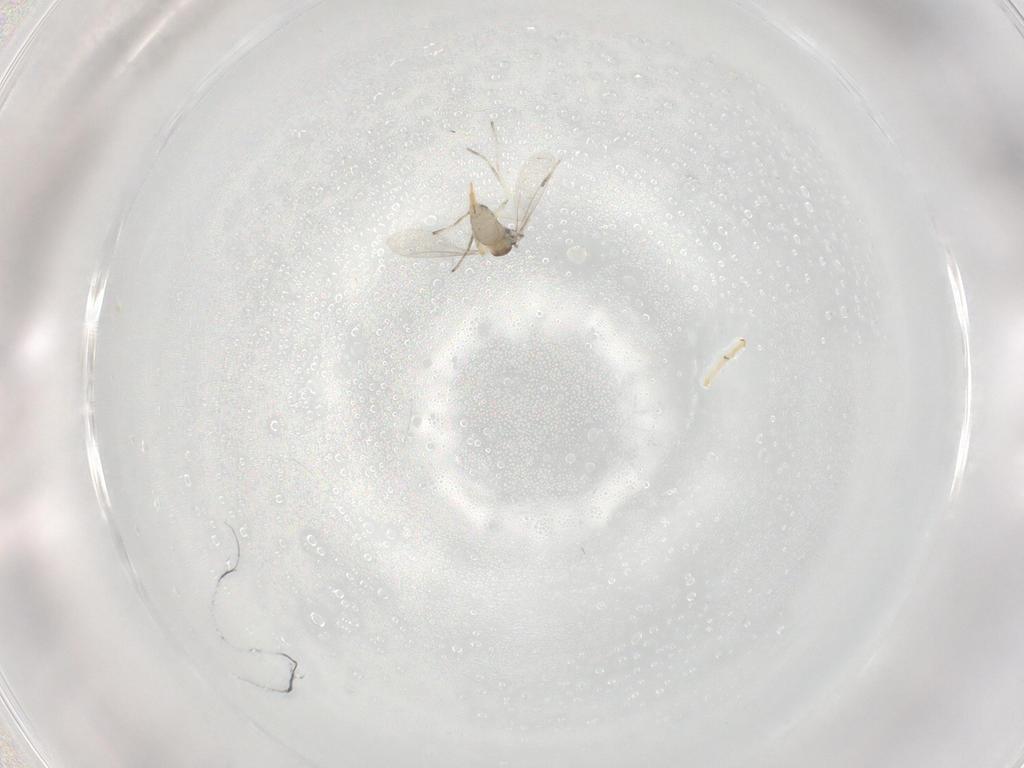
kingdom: Animalia
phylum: Arthropoda
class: Insecta
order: Diptera
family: Cecidomyiidae
